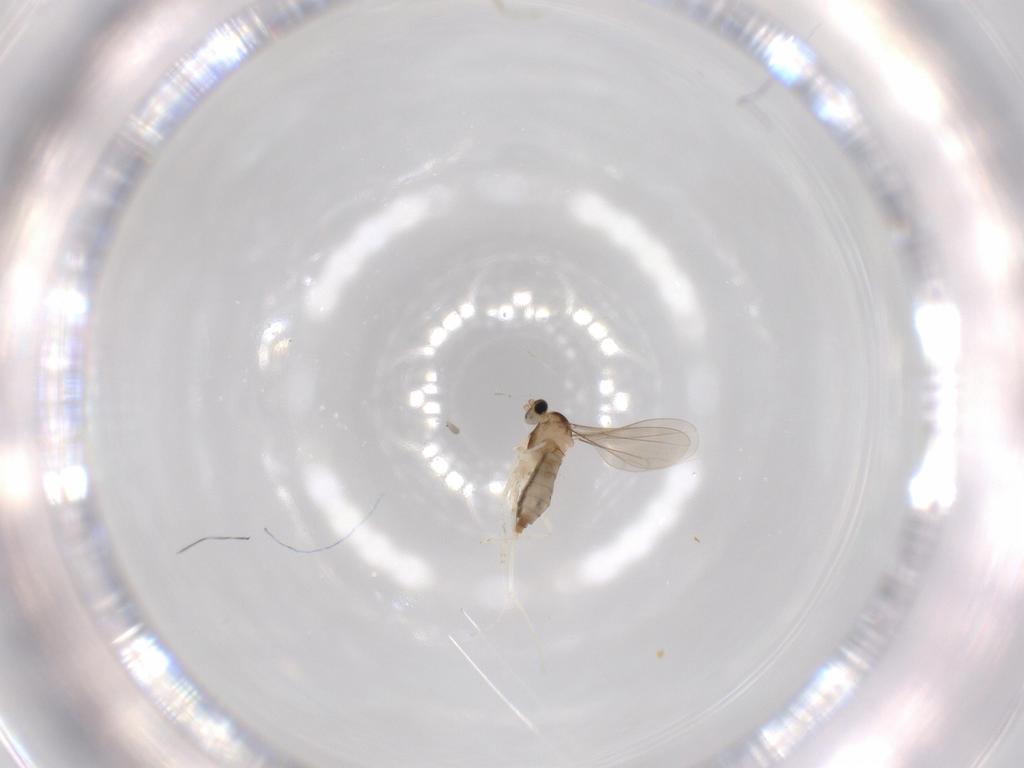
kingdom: Animalia
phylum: Arthropoda
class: Insecta
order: Diptera
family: Psychodidae
